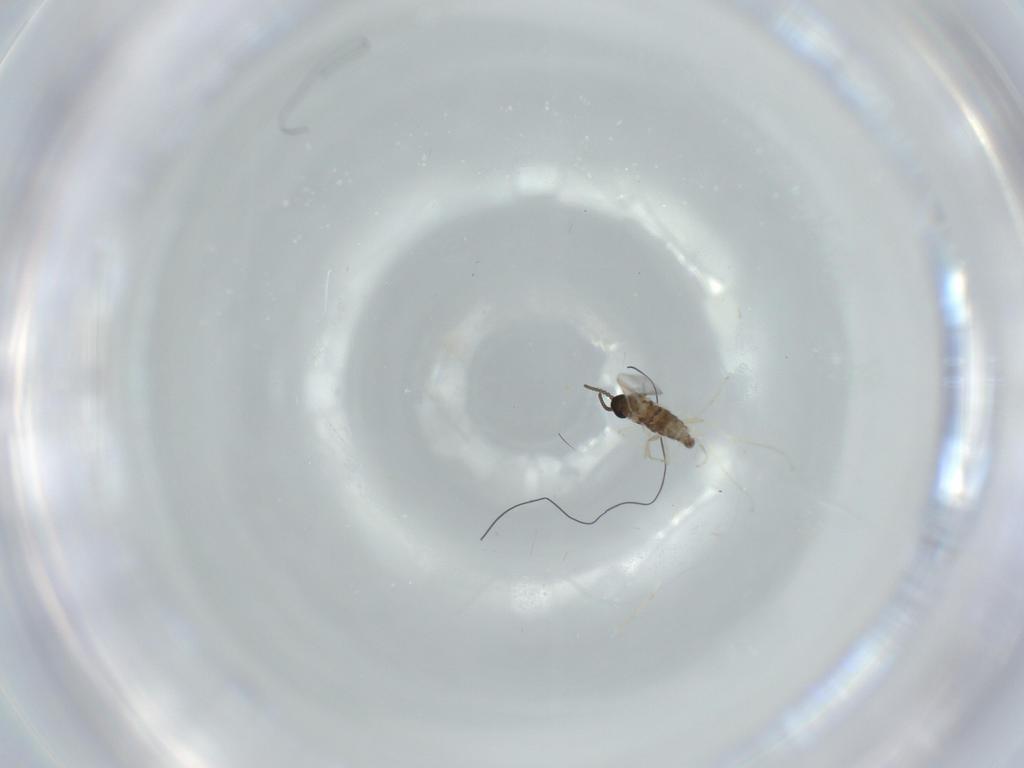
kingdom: Animalia
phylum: Arthropoda
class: Insecta
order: Diptera
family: Cecidomyiidae
